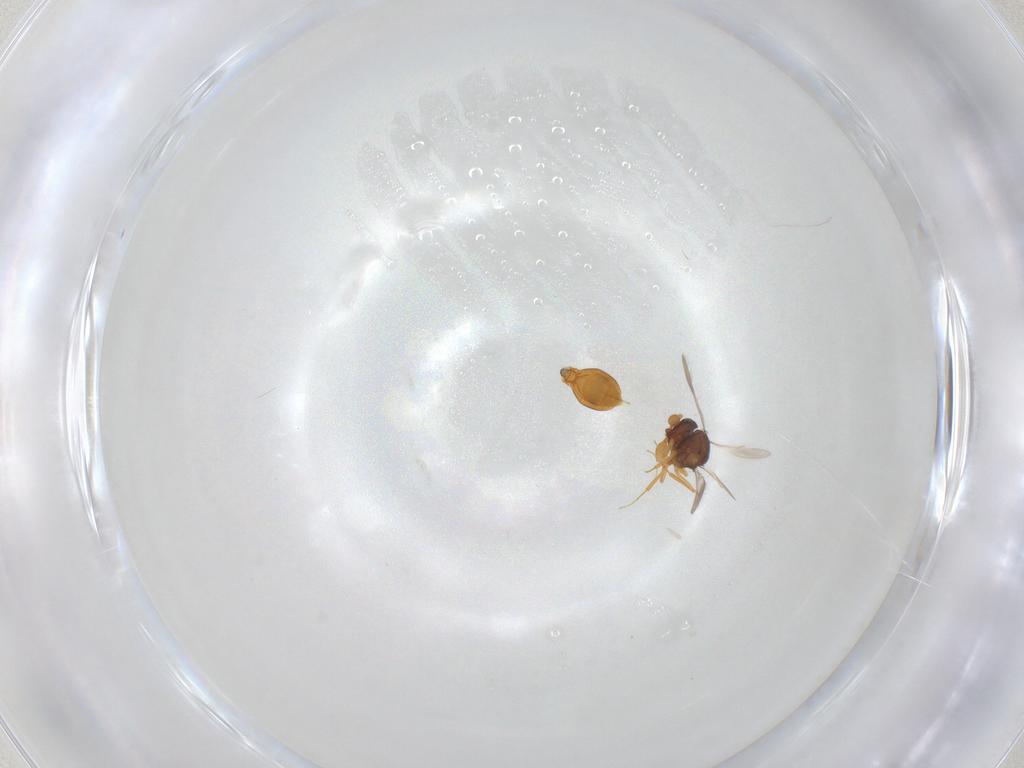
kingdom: Animalia
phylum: Arthropoda
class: Insecta
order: Hymenoptera
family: Scelionidae
